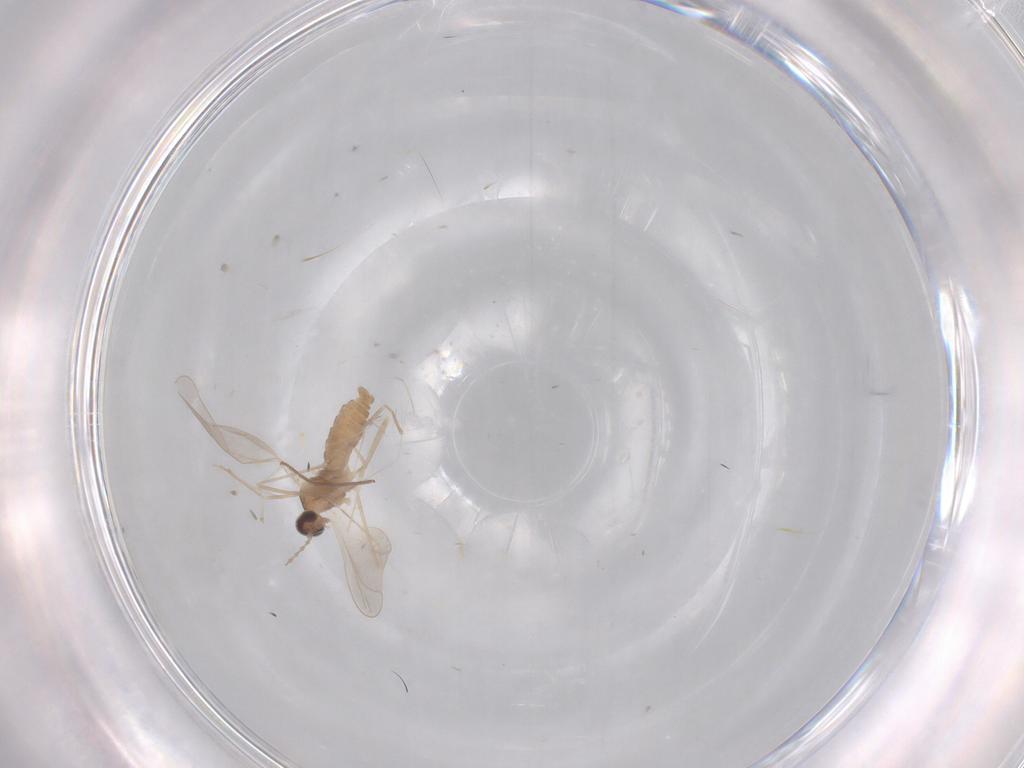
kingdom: Animalia
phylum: Arthropoda
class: Insecta
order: Diptera
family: Cecidomyiidae
